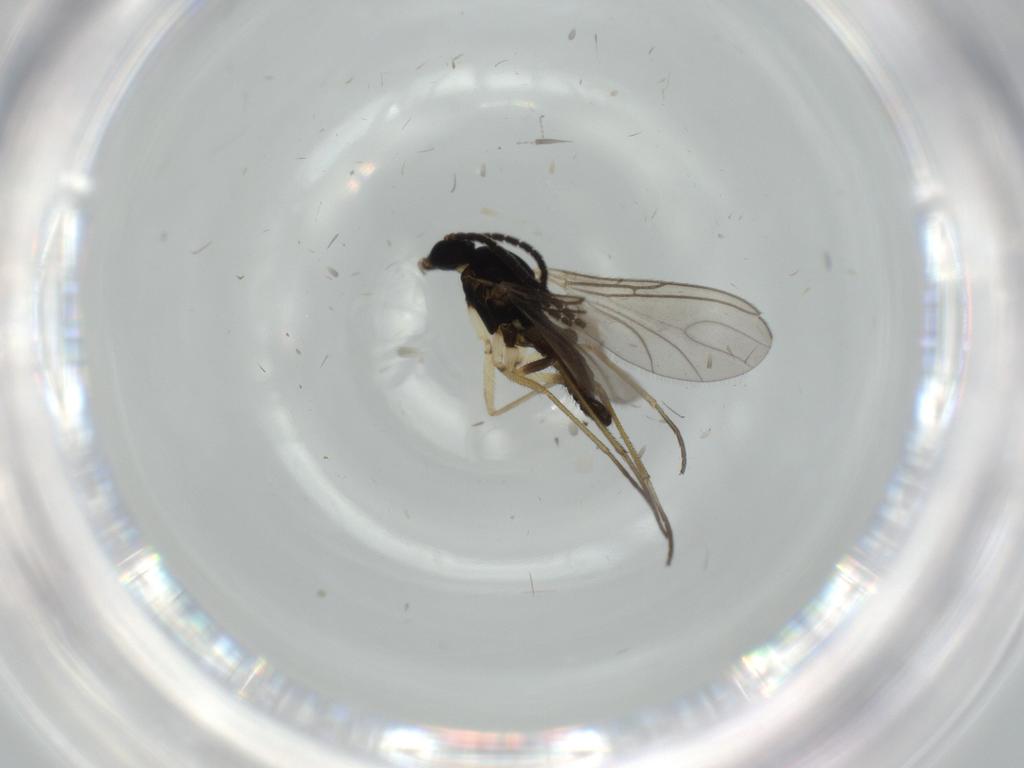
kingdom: Animalia
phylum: Arthropoda
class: Insecta
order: Diptera
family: Sciaridae
